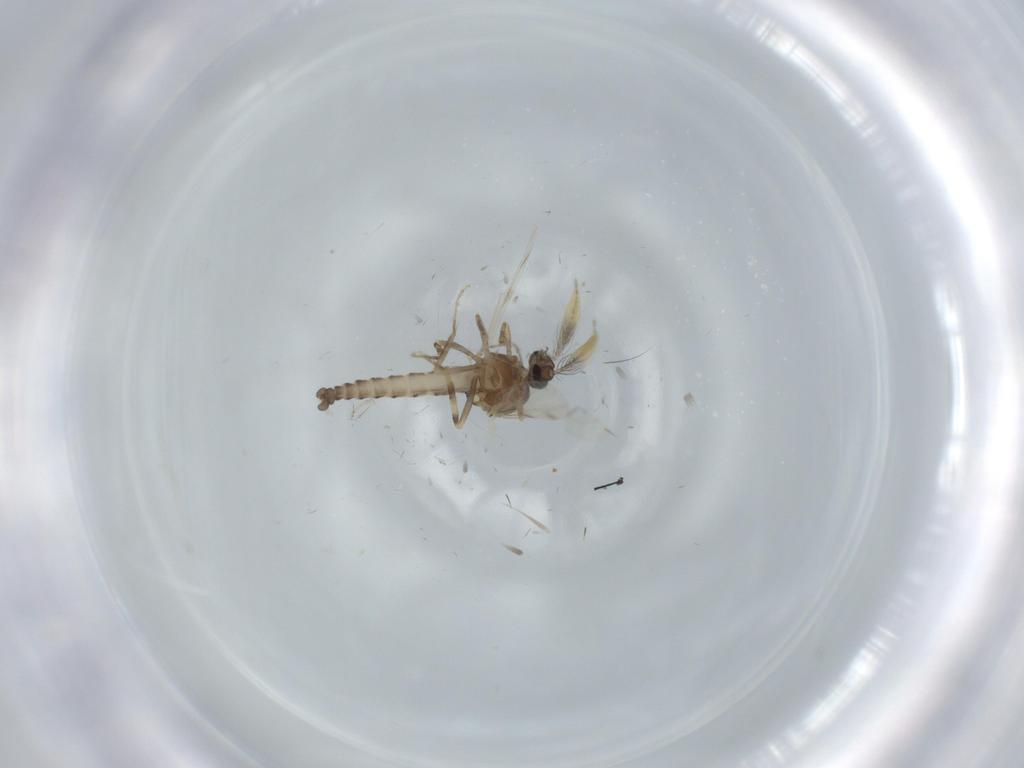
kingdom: Animalia
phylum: Arthropoda
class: Insecta
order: Diptera
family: Ceratopogonidae
